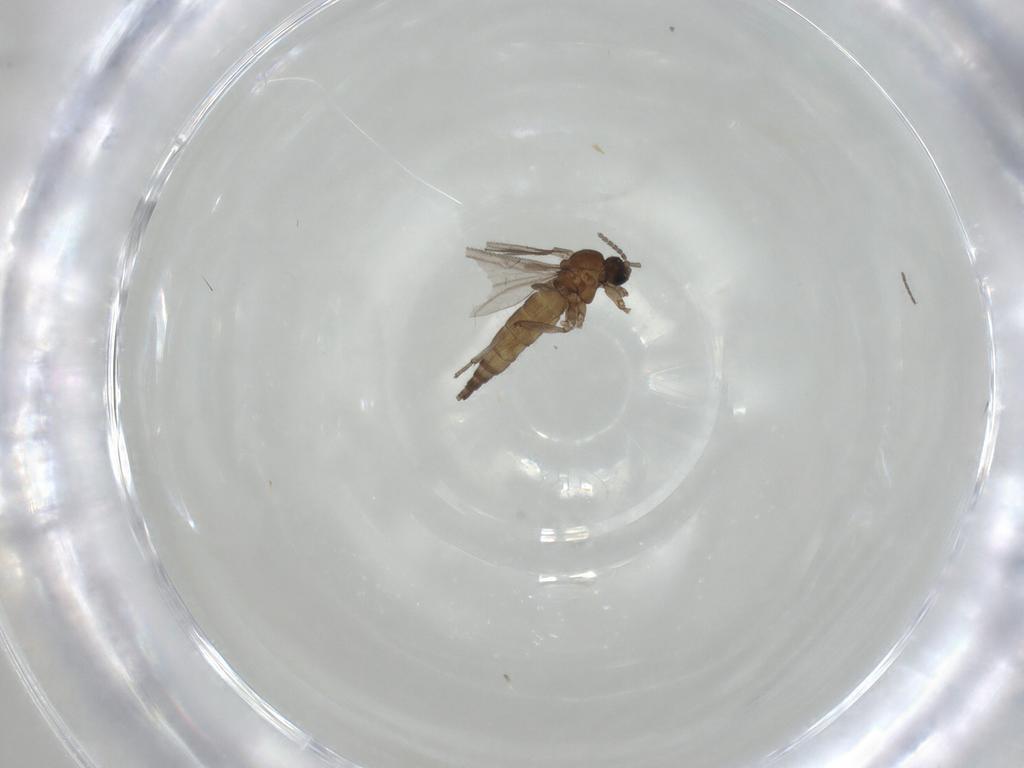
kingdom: Animalia
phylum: Arthropoda
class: Insecta
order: Diptera
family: Sciaridae
